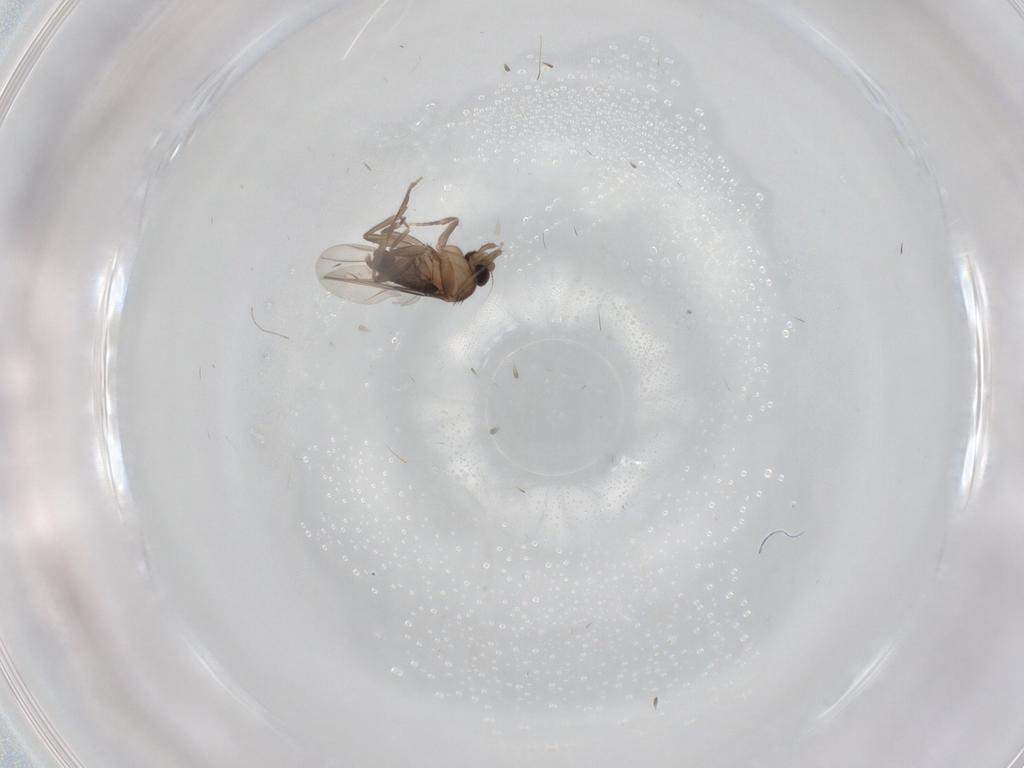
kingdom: Animalia
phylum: Arthropoda
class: Insecta
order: Diptera
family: Phoridae
